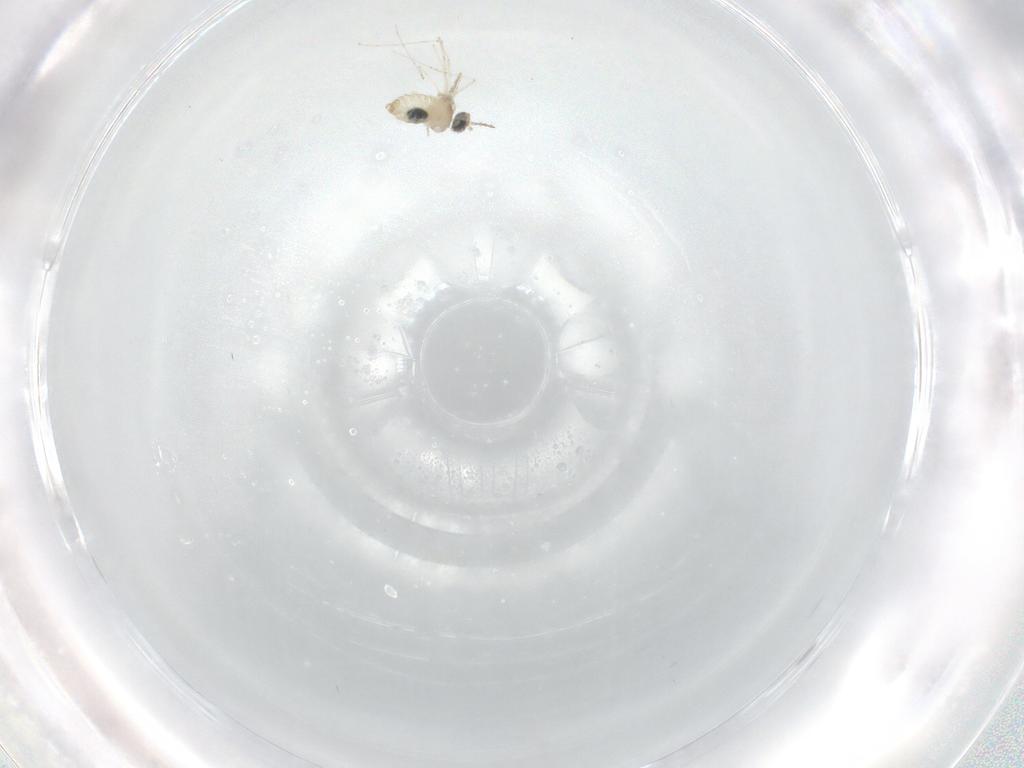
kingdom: Animalia
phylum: Arthropoda
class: Insecta
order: Diptera
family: Cecidomyiidae
